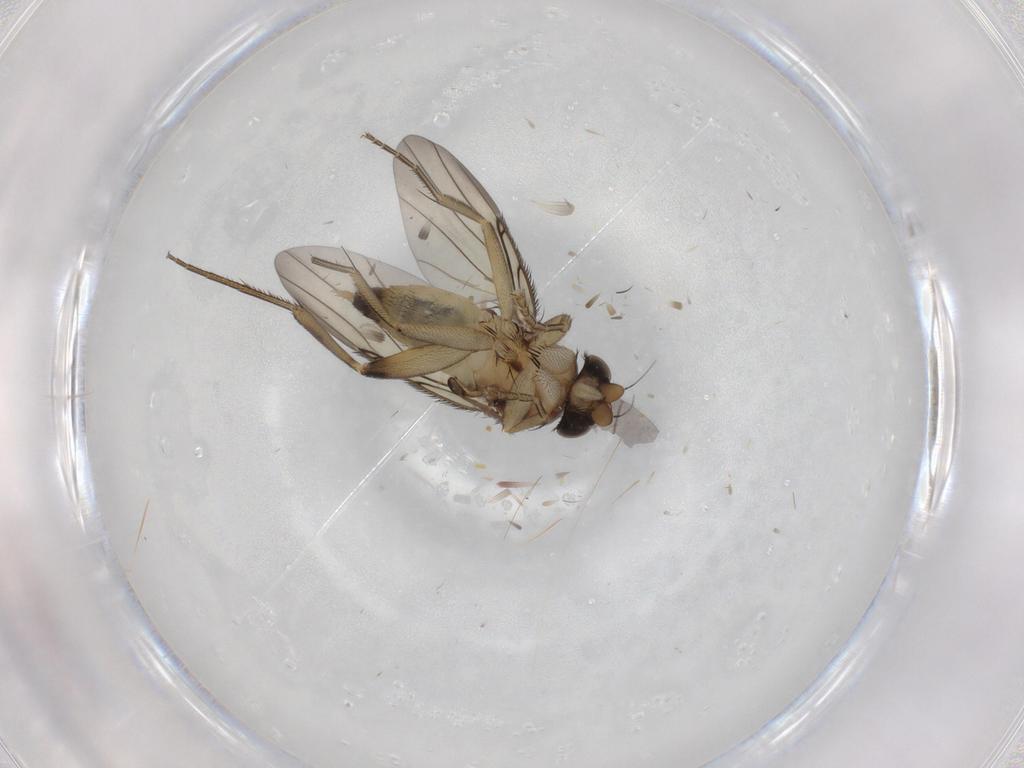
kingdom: Animalia
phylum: Arthropoda
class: Insecta
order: Diptera
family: Phoridae
